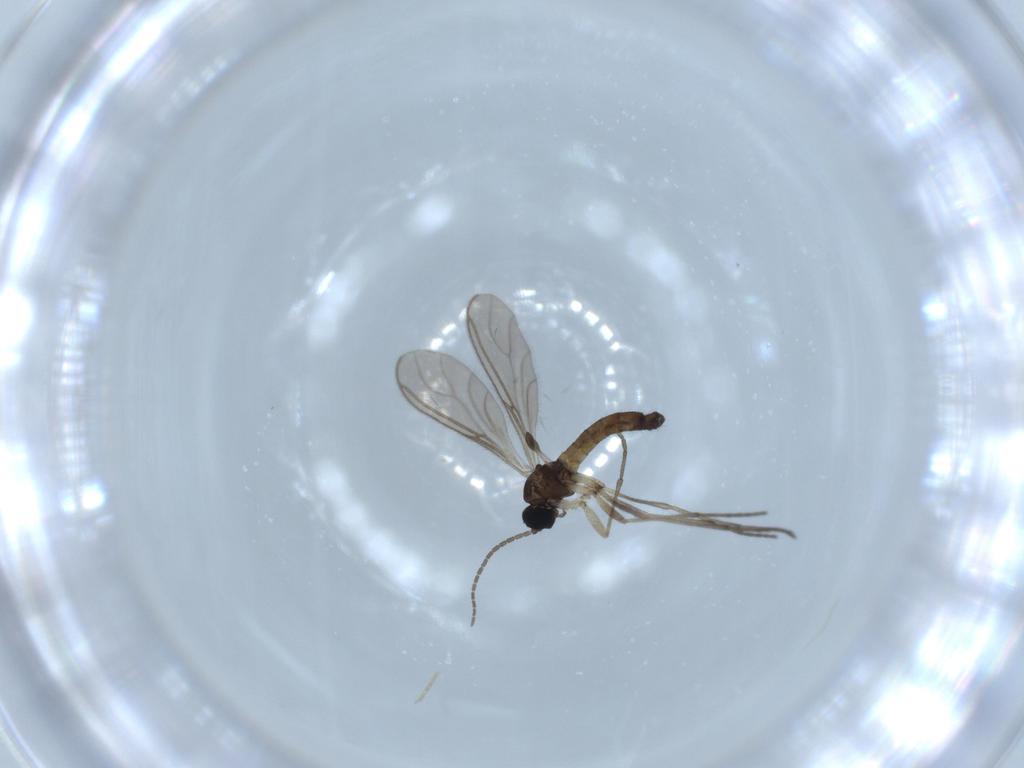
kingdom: Animalia
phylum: Arthropoda
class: Insecta
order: Diptera
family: Sciaridae
